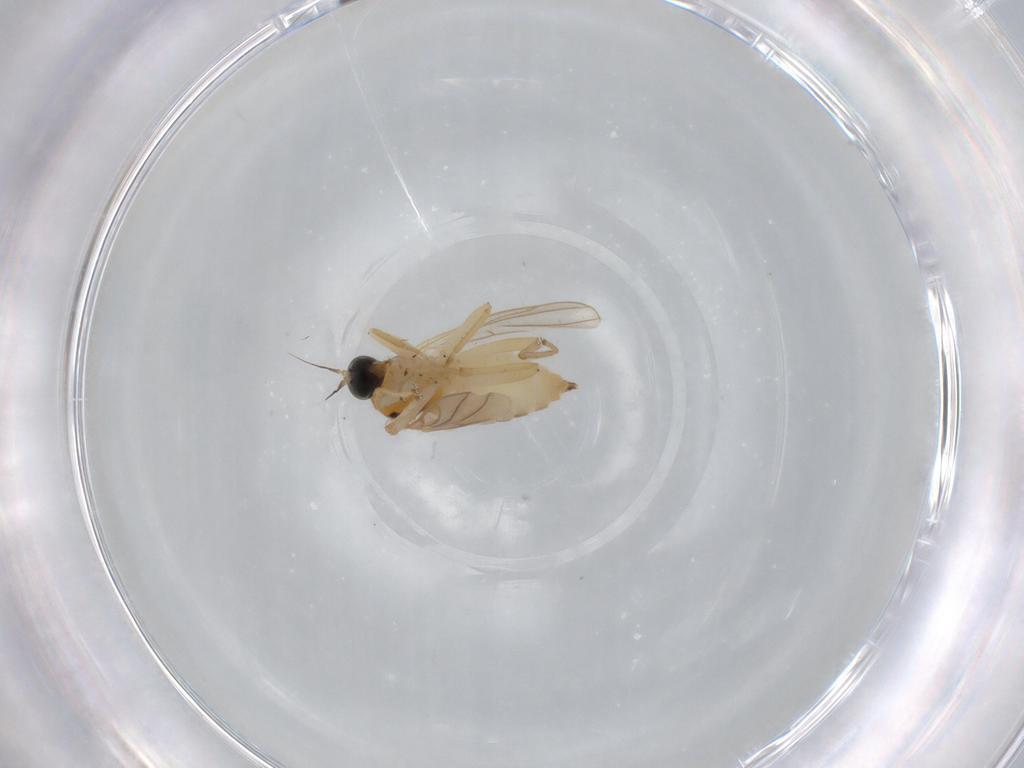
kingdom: Animalia
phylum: Arthropoda
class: Insecta
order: Diptera
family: Hybotidae
